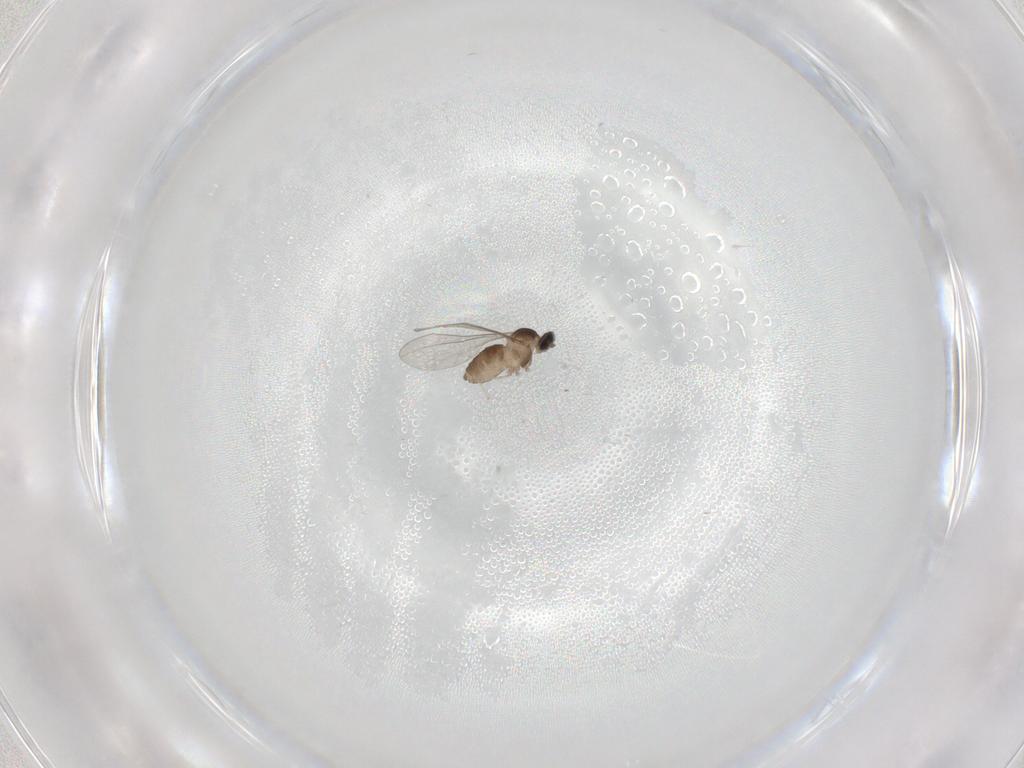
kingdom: Animalia
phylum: Arthropoda
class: Insecta
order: Diptera
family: Cecidomyiidae
